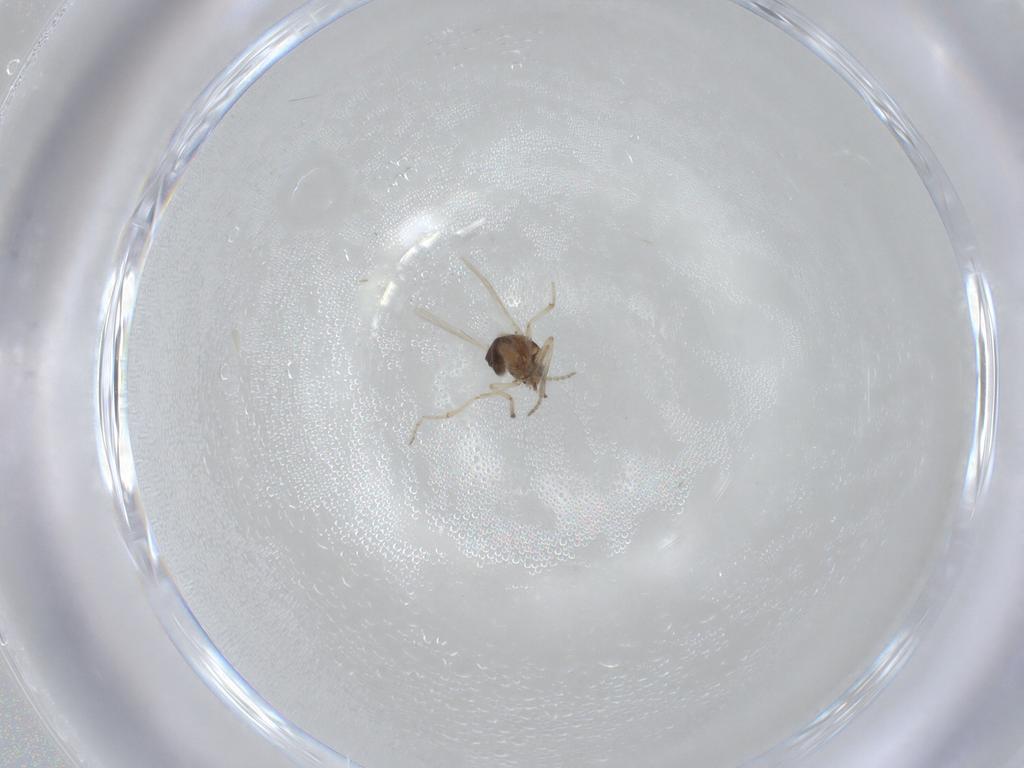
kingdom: Animalia
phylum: Arthropoda
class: Insecta
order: Diptera
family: Ceratopogonidae
